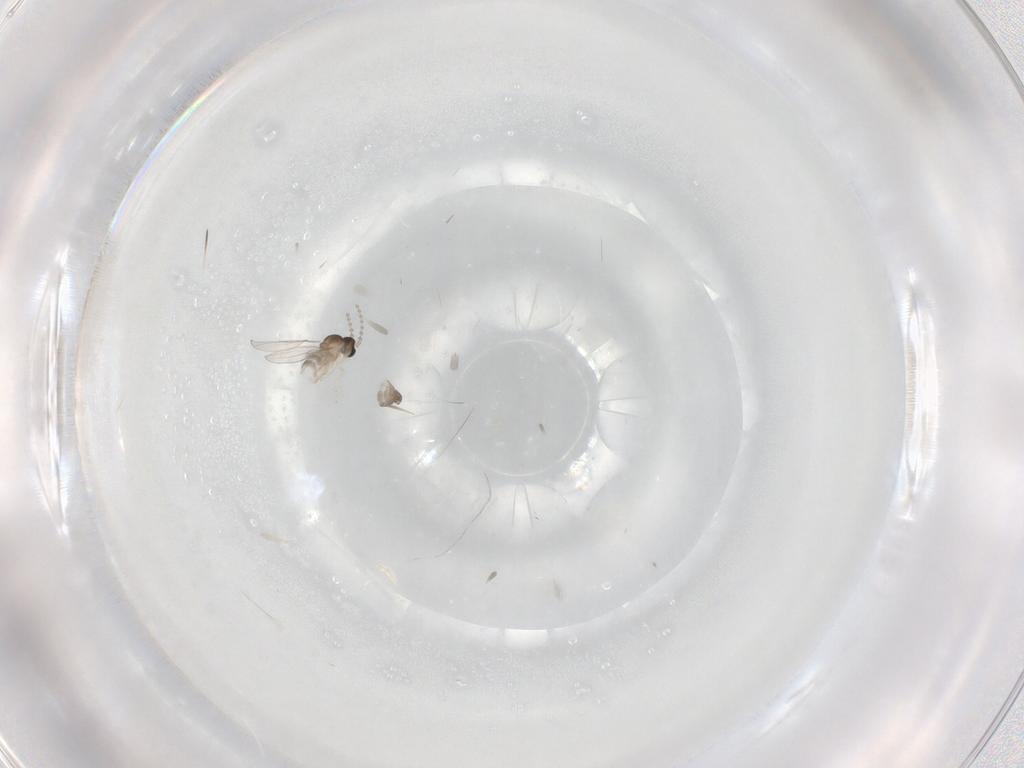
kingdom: Animalia
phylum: Arthropoda
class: Insecta
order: Diptera
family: Cecidomyiidae
